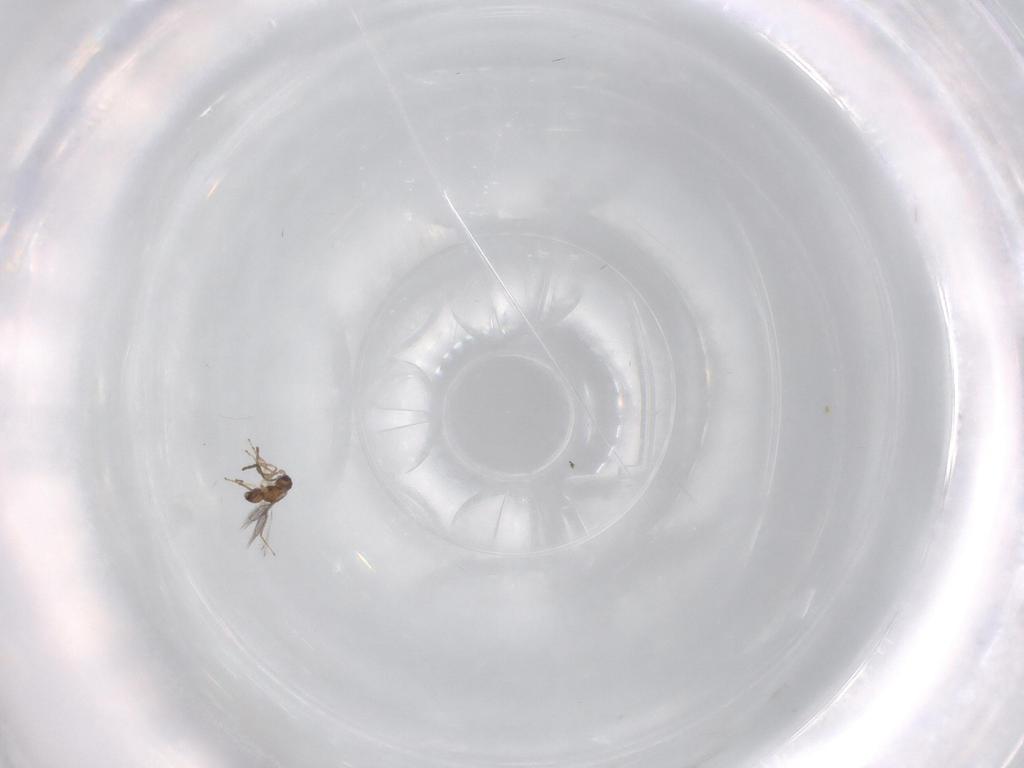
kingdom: Animalia
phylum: Arthropoda
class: Insecta
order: Hymenoptera
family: Mymaridae
